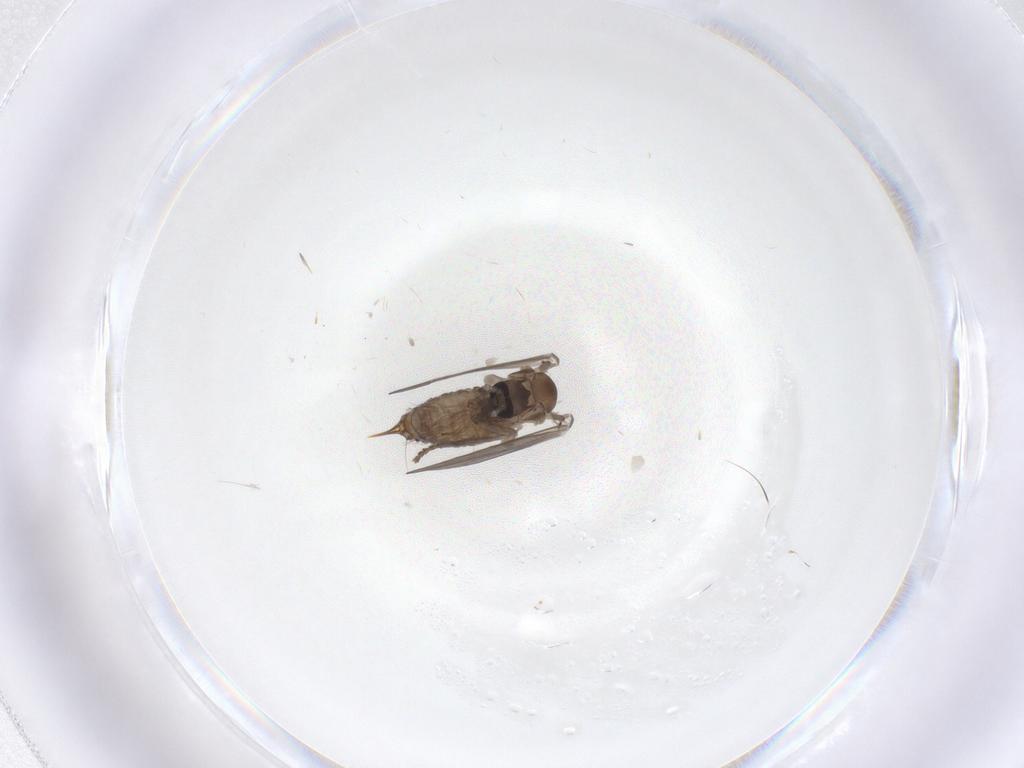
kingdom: Animalia
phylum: Arthropoda
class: Insecta
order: Diptera
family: Psychodidae
